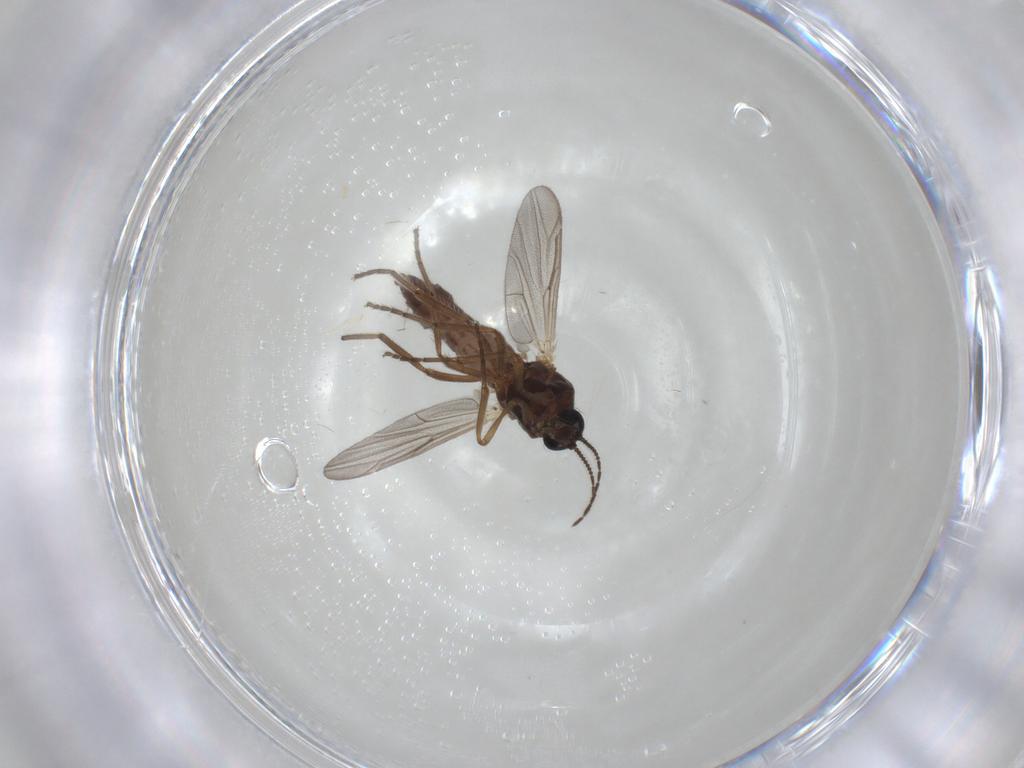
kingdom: Animalia
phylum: Arthropoda
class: Insecta
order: Diptera
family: Ceratopogonidae
